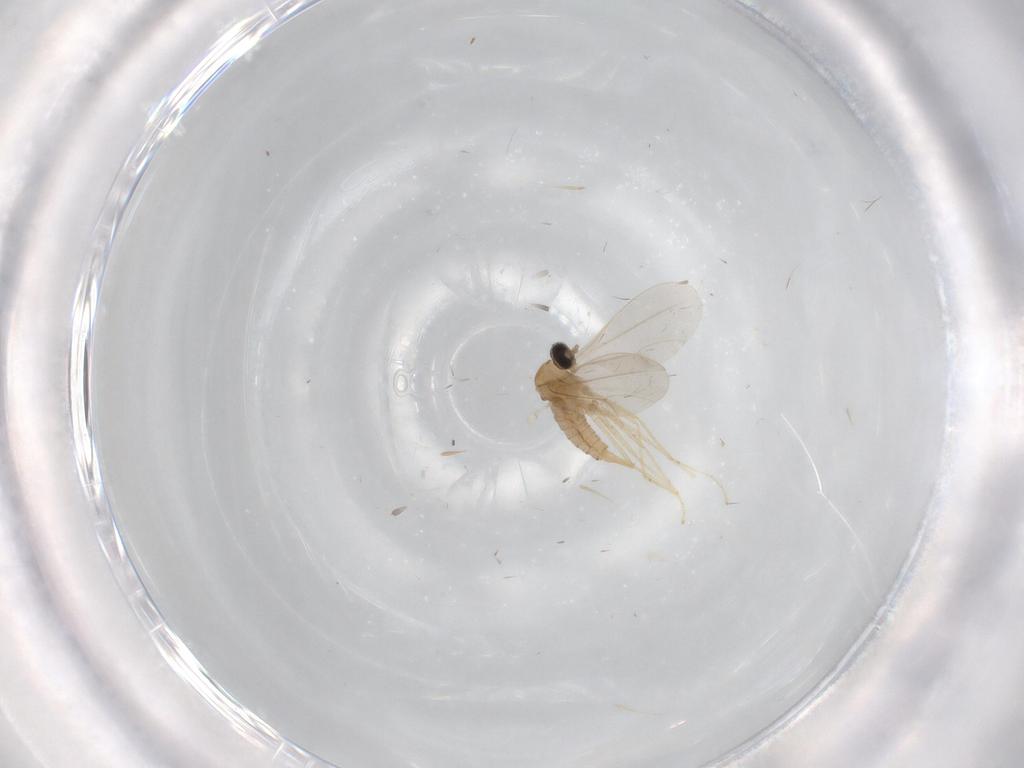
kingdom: Animalia
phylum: Arthropoda
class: Insecta
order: Diptera
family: Cecidomyiidae
